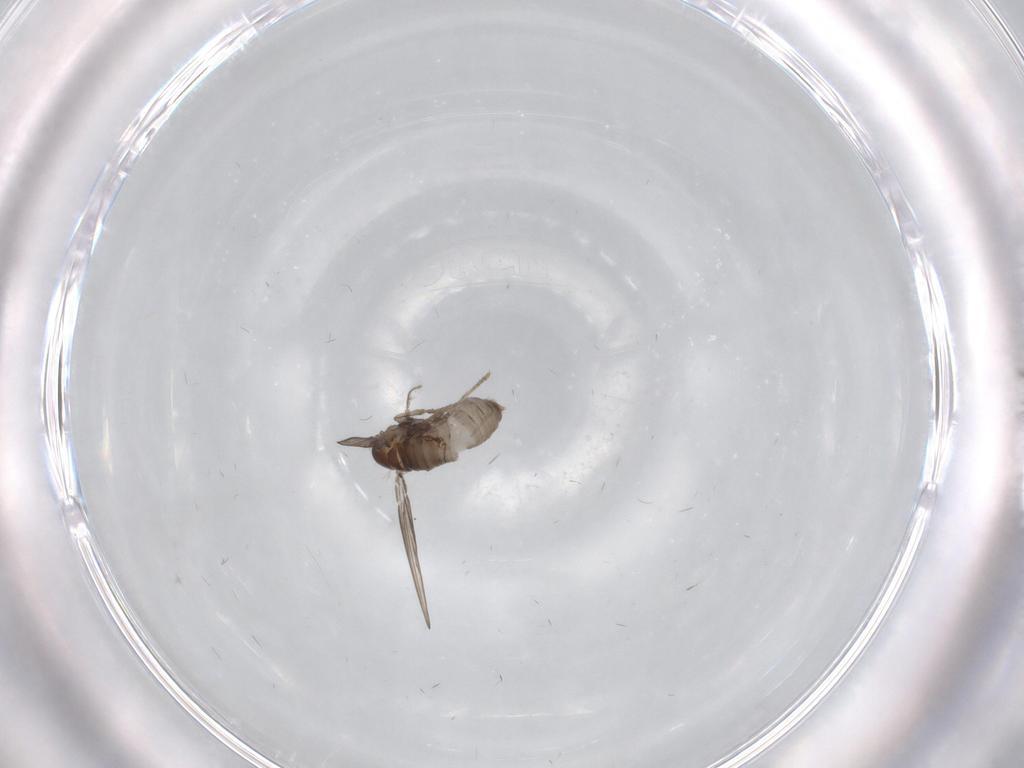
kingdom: Animalia
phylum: Arthropoda
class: Insecta
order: Diptera
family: Psychodidae
